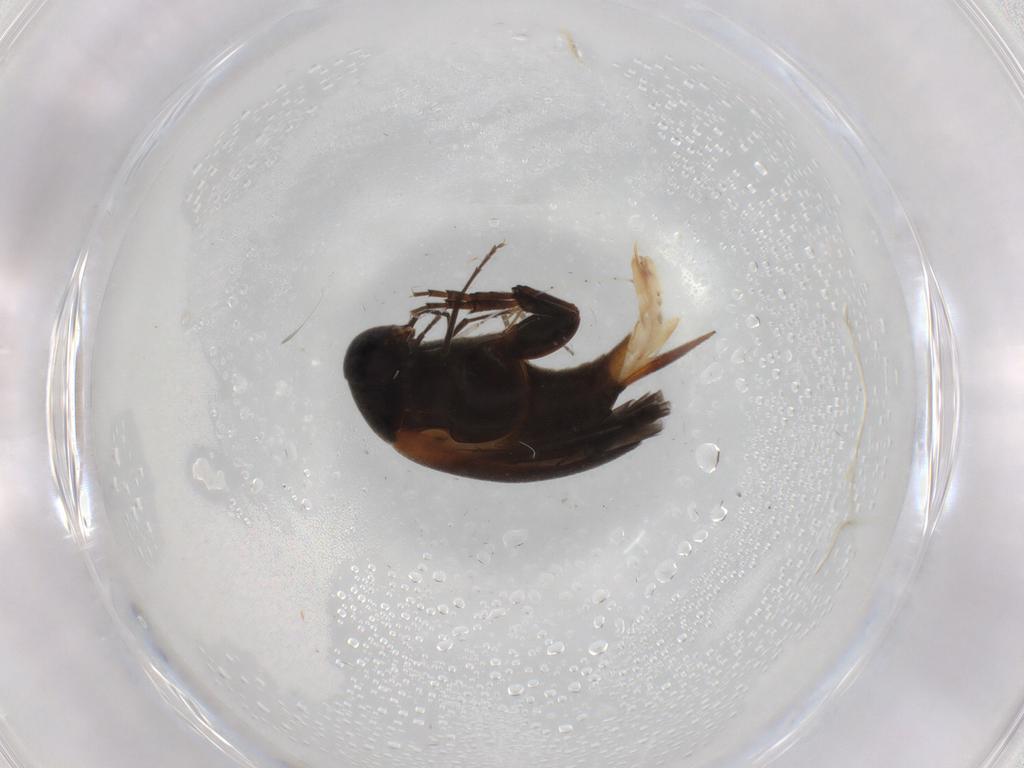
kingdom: Animalia
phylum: Arthropoda
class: Insecta
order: Coleoptera
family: Mordellidae
